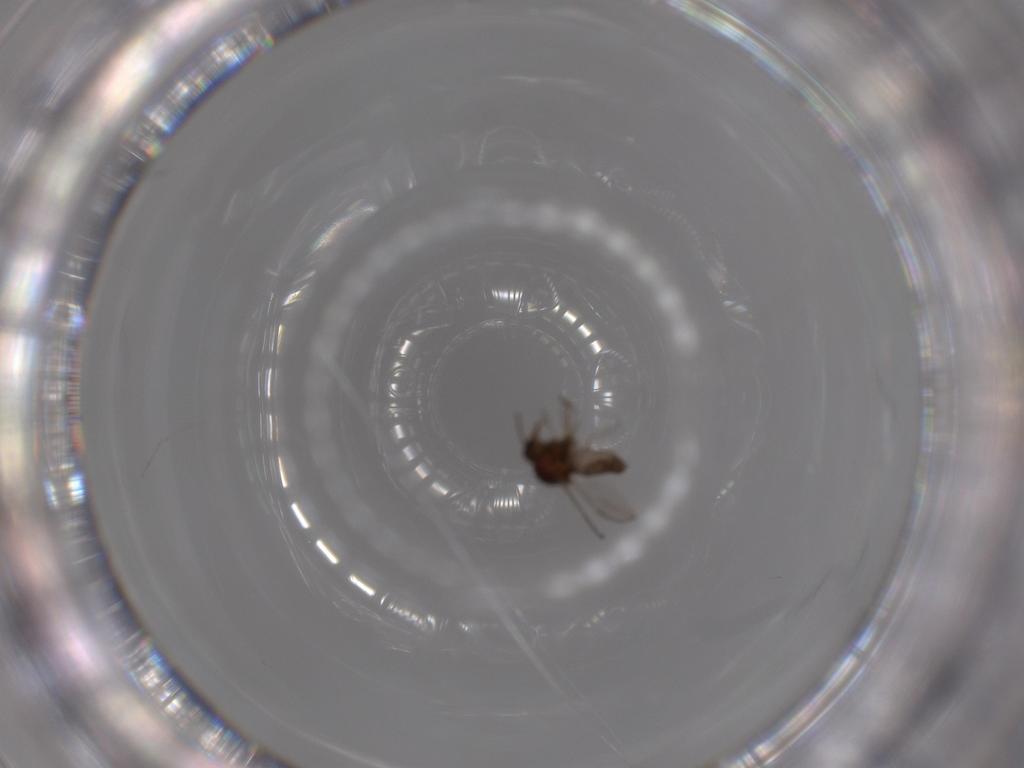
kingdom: Animalia
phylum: Arthropoda
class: Insecta
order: Diptera
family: Ceratopogonidae
